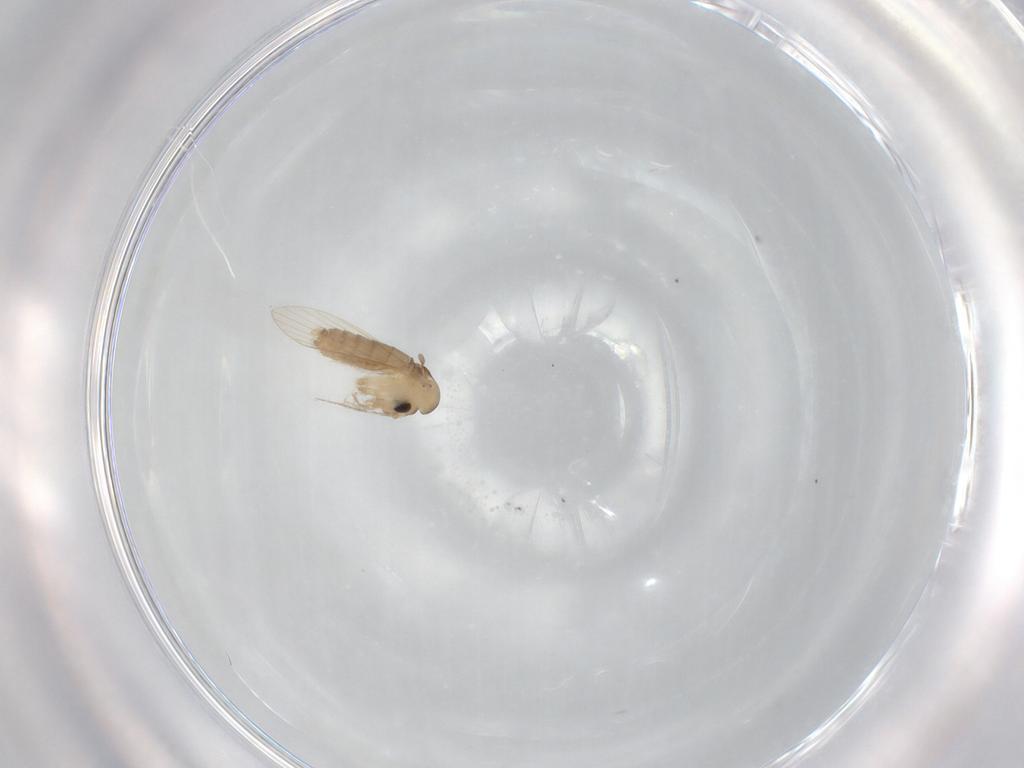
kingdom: Animalia
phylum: Arthropoda
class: Insecta
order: Diptera
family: Psychodidae
